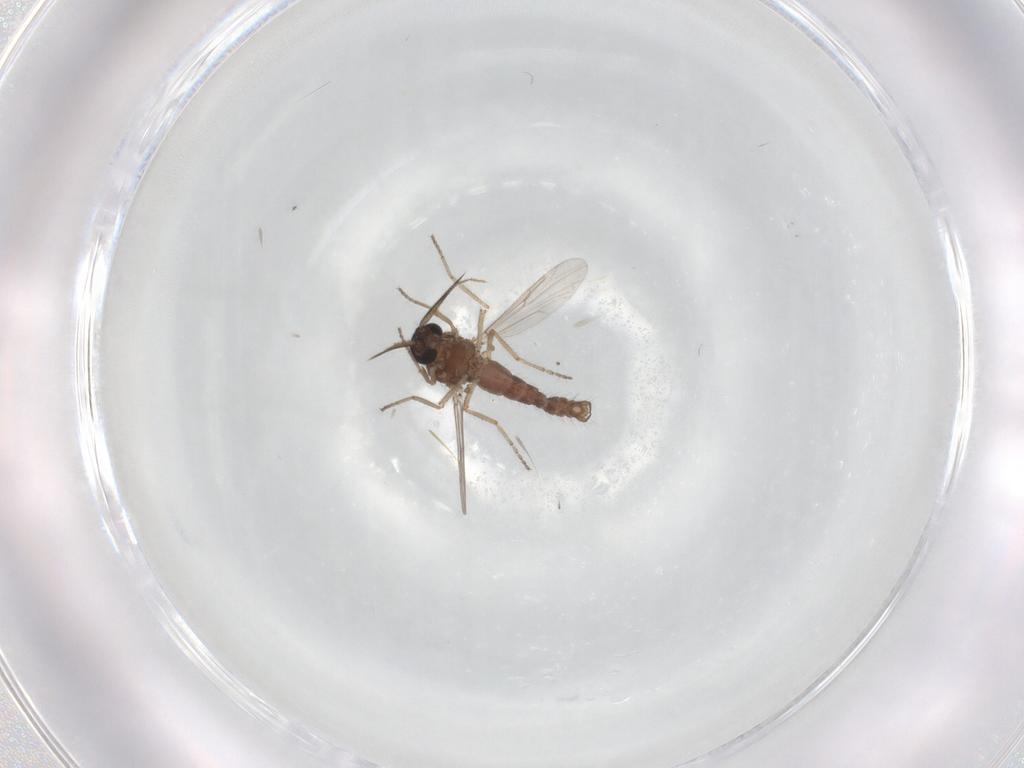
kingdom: Animalia
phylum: Arthropoda
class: Insecta
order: Diptera
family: Ceratopogonidae
